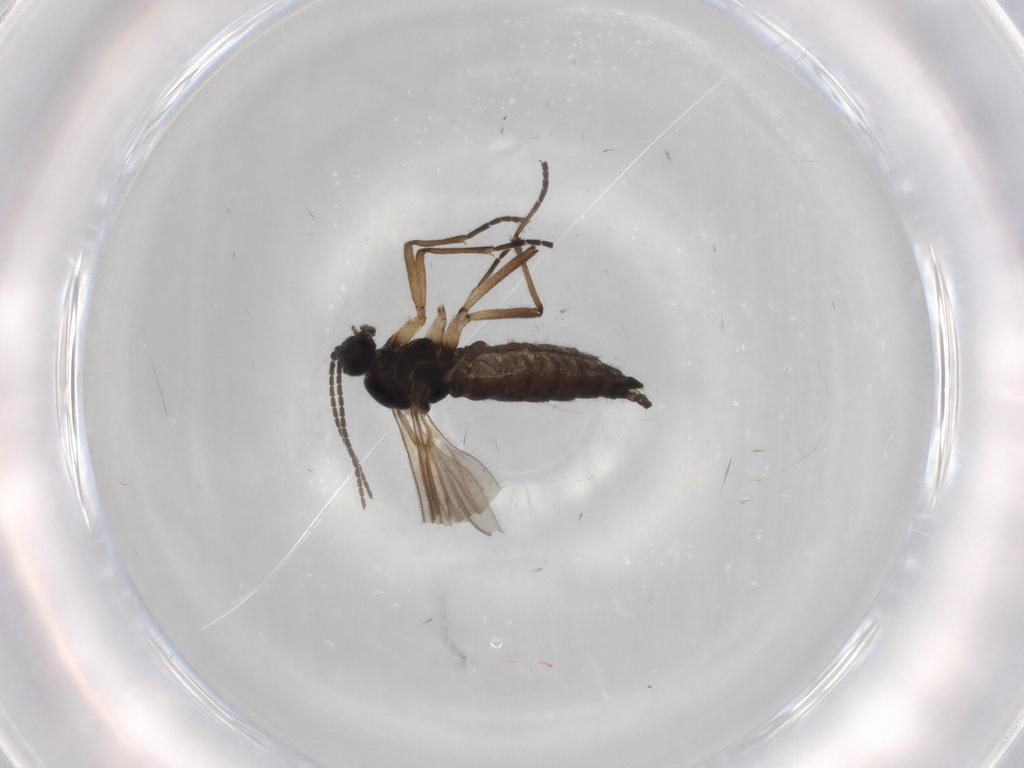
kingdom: Animalia
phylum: Arthropoda
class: Insecta
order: Diptera
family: Sciaridae
